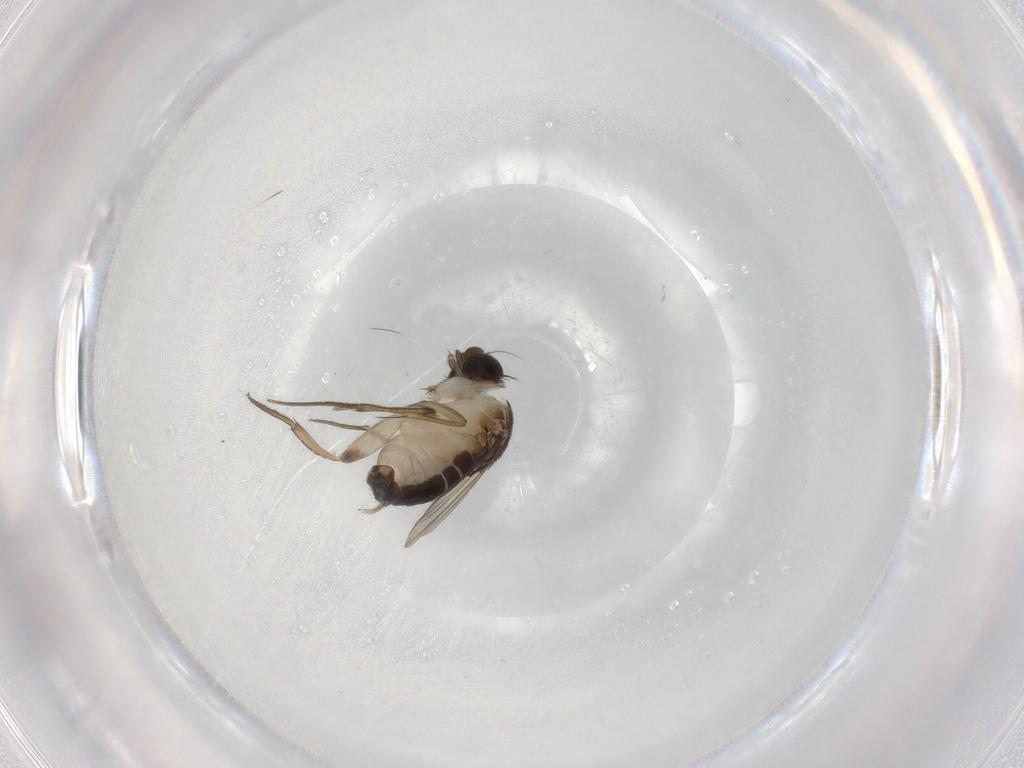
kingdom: Animalia
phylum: Arthropoda
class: Insecta
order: Diptera
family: Phoridae
